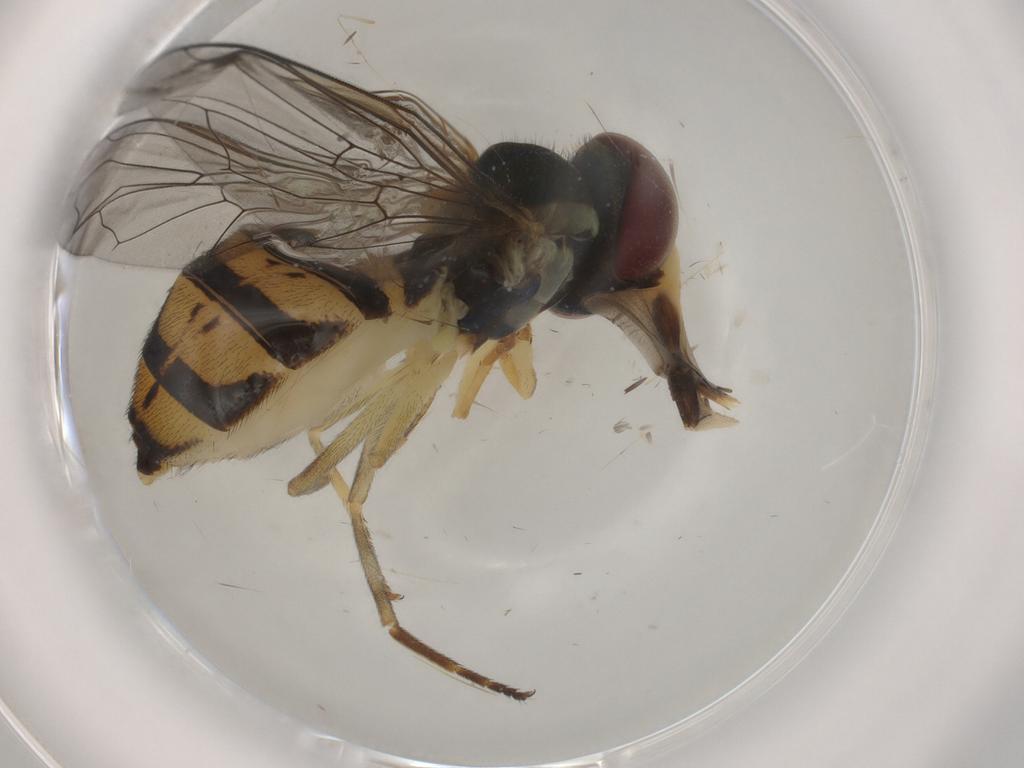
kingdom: Animalia
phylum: Arthropoda
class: Insecta
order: Diptera
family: Syrphidae
